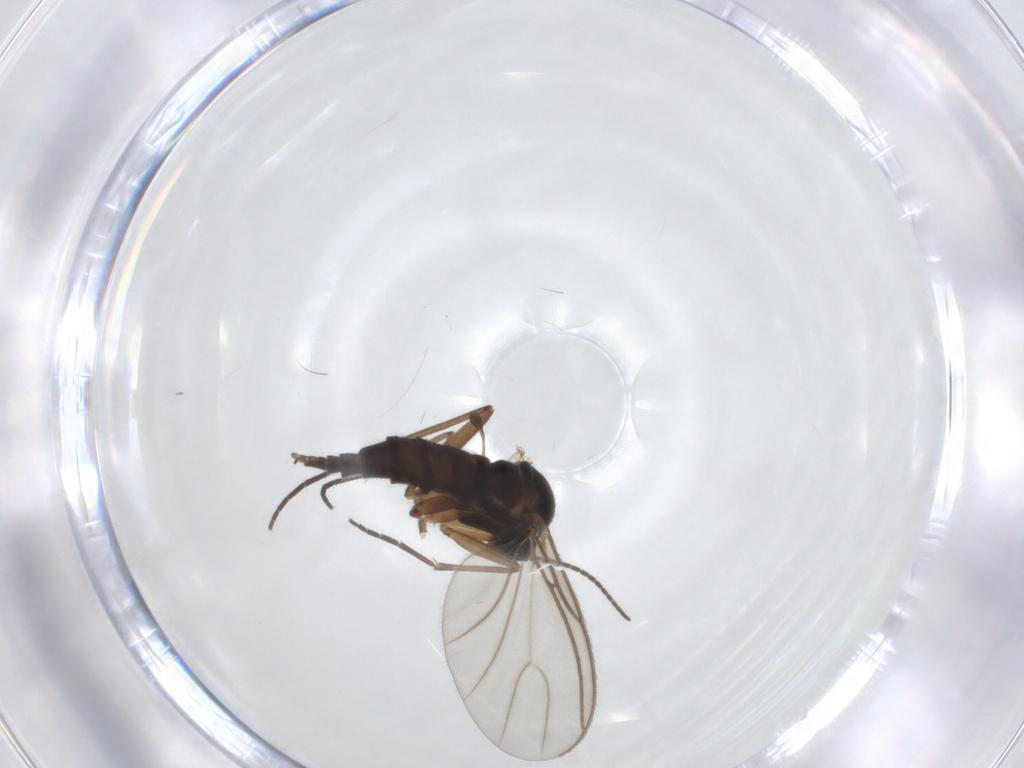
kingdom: Animalia
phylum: Arthropoda
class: Insecta
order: Diptera
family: Sciaridae
